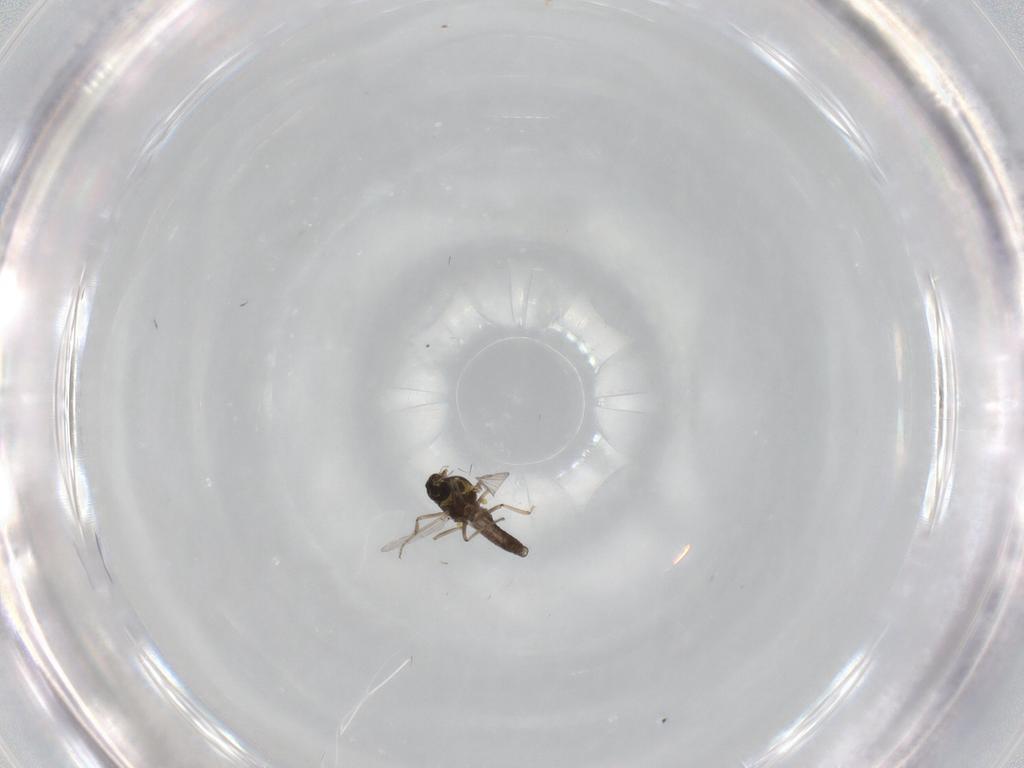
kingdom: Animalia
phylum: Arthropoda
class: Insecta
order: Diptera
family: Ceratopogonidae
